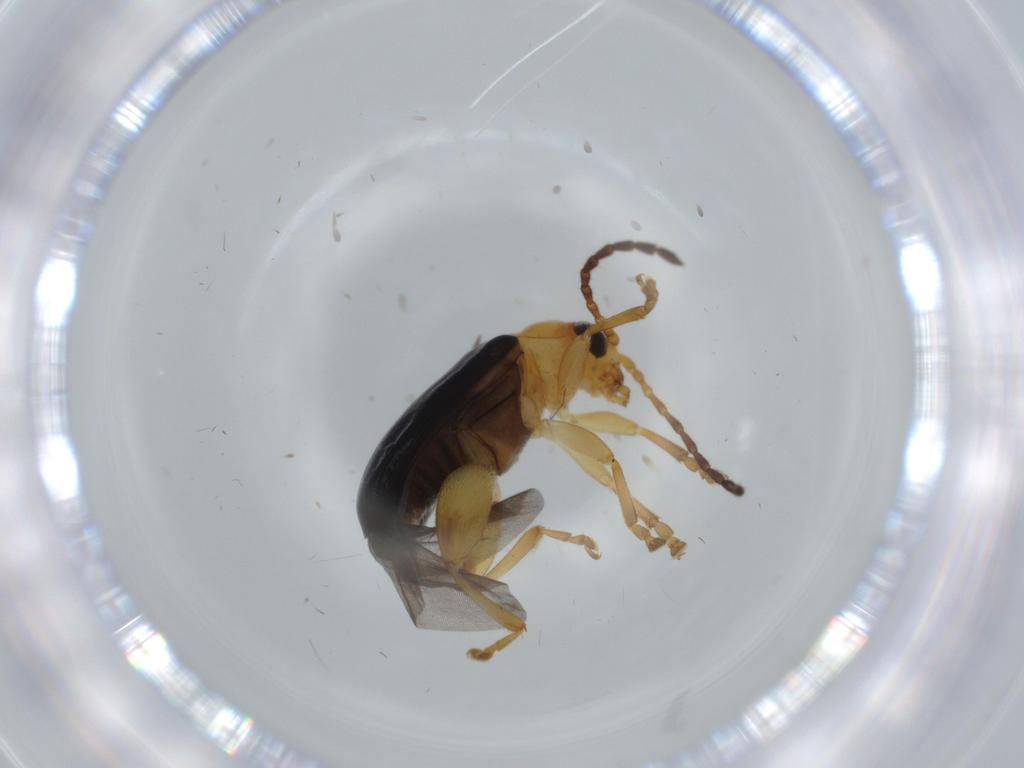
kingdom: Animalia
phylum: Arthropoda
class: Insecta
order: Coleoptera
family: Chrysomelidae
